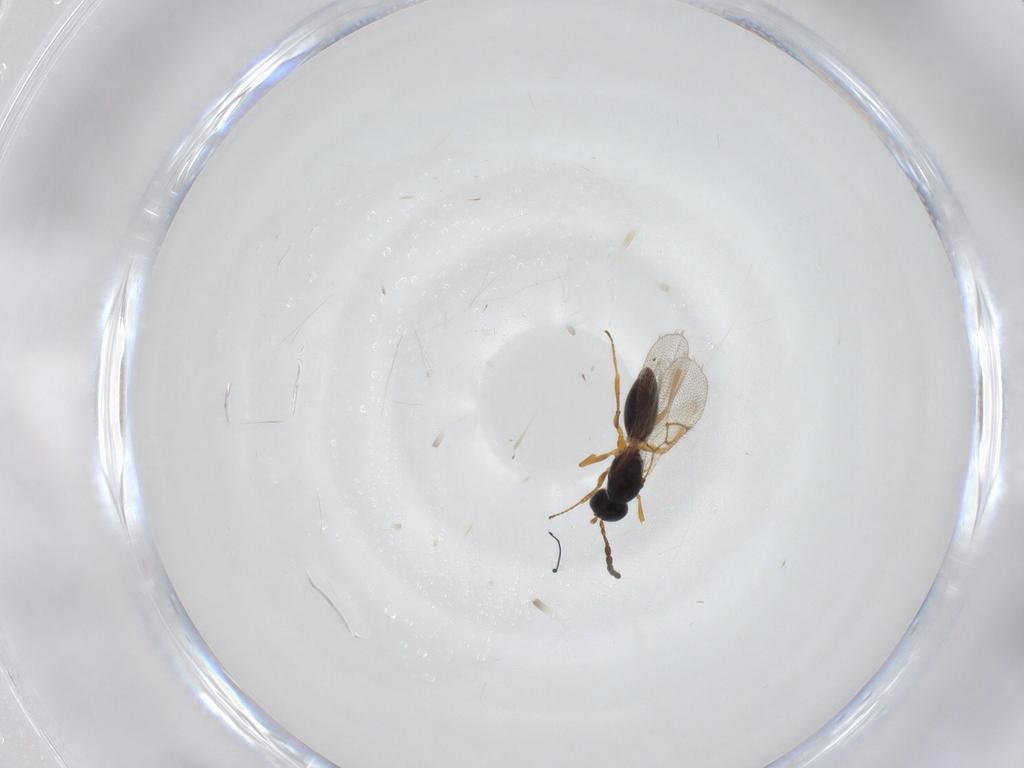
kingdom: Animalia
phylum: Arthropoda
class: Insecta
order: Hymenoptera
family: Figitidae
